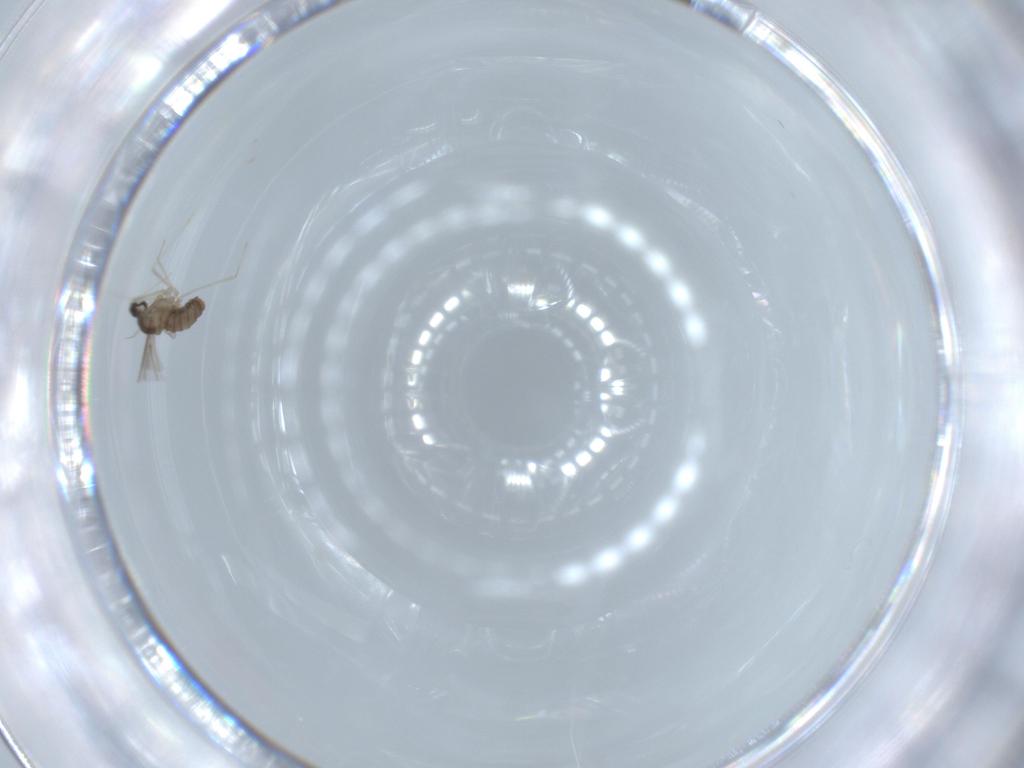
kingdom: Animalia
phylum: Arthropoda
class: Insecta
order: Diptera
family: Cecidomyiidae
